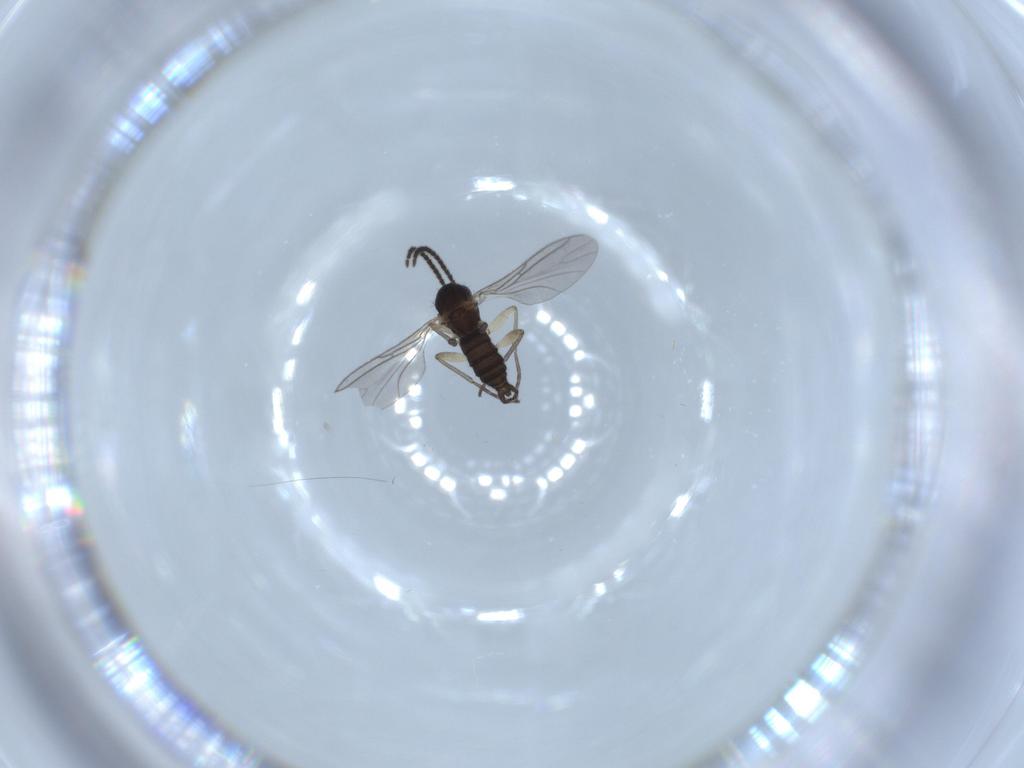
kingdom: Animalia
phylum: Arthropoda
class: Insecta
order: Diptera
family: Sciaridae
